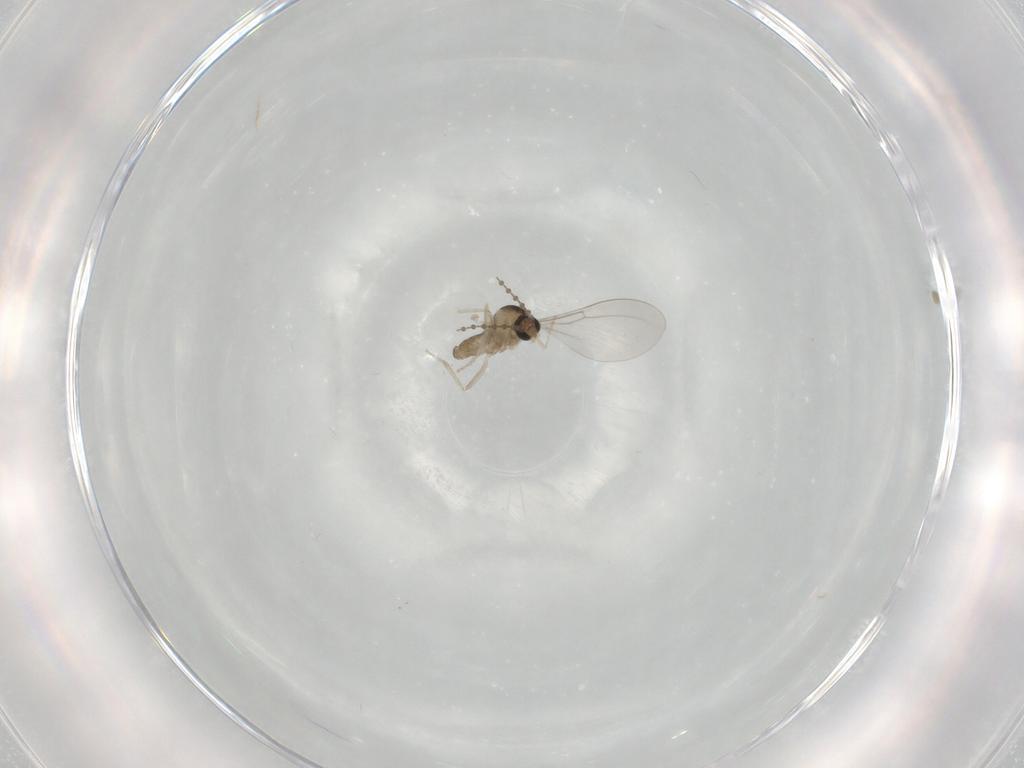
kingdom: Animalia
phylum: Arthropoda
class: Insecta
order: Diptera
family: Cecidomyiidae
